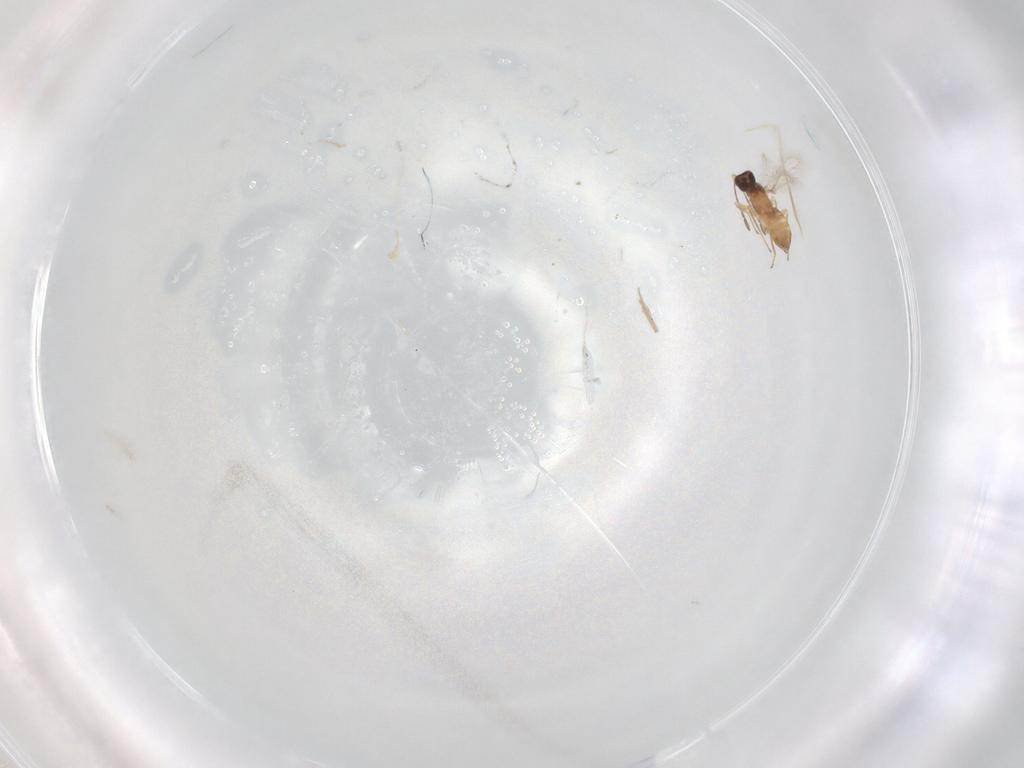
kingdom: Animalia
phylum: Arthropoda
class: Insecta
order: Hymenoptera
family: Mymaridae
